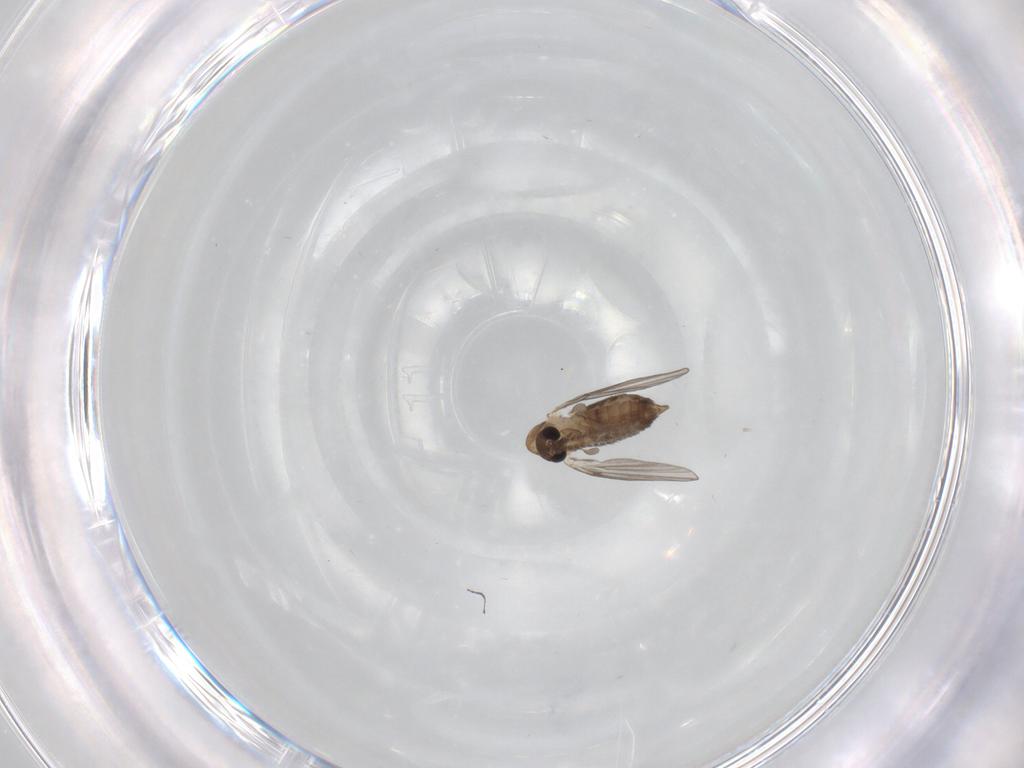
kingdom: Animalia
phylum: Arthropoda
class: Insecta
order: Diptera
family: Psychodidae
